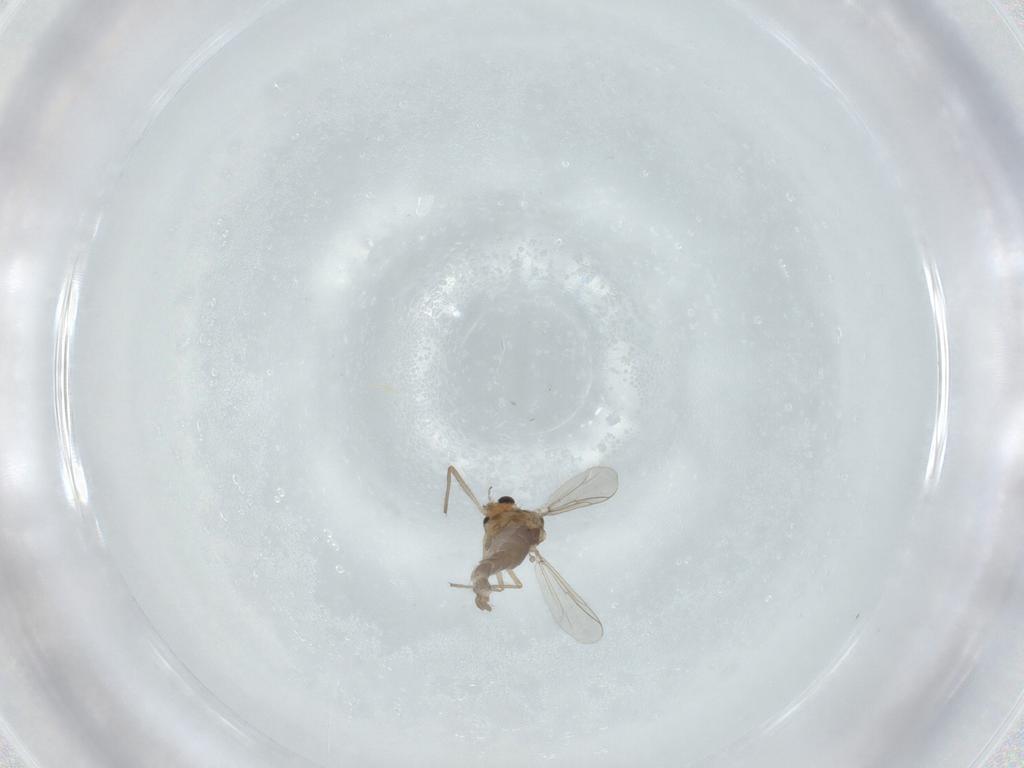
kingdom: Animalia
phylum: Arthropoda
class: Insecta
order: Diptera
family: Chironomidae
